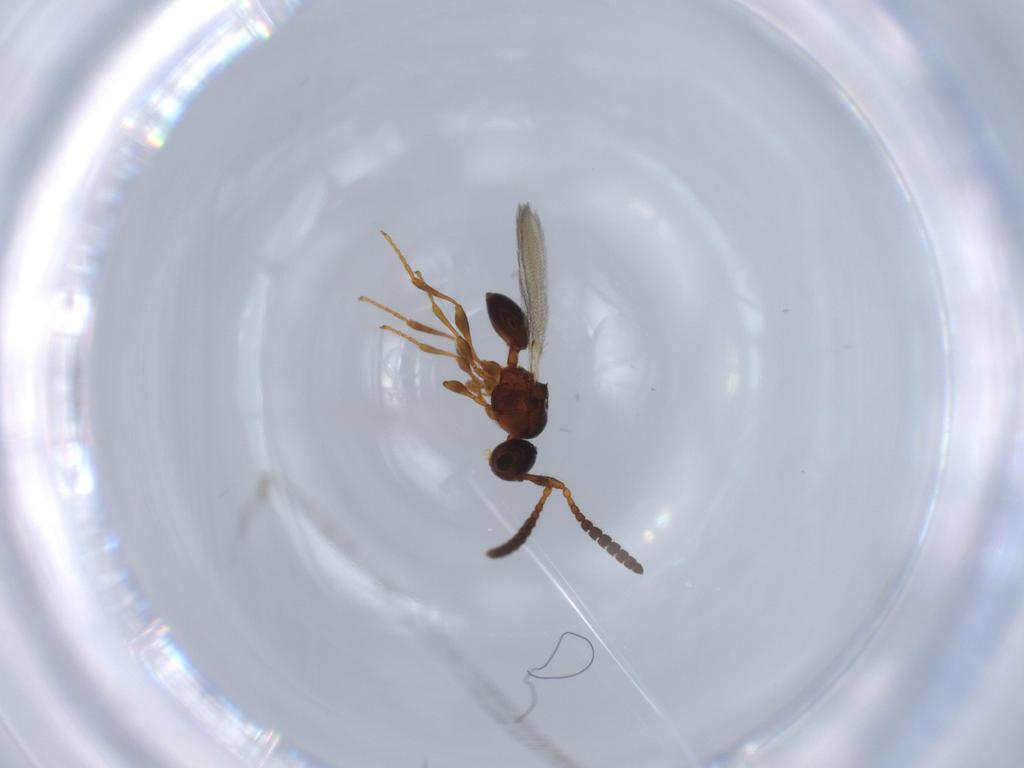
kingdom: Animalia
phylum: Arthropoda
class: Insecta
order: Hymenoptera
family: Diapriidae
